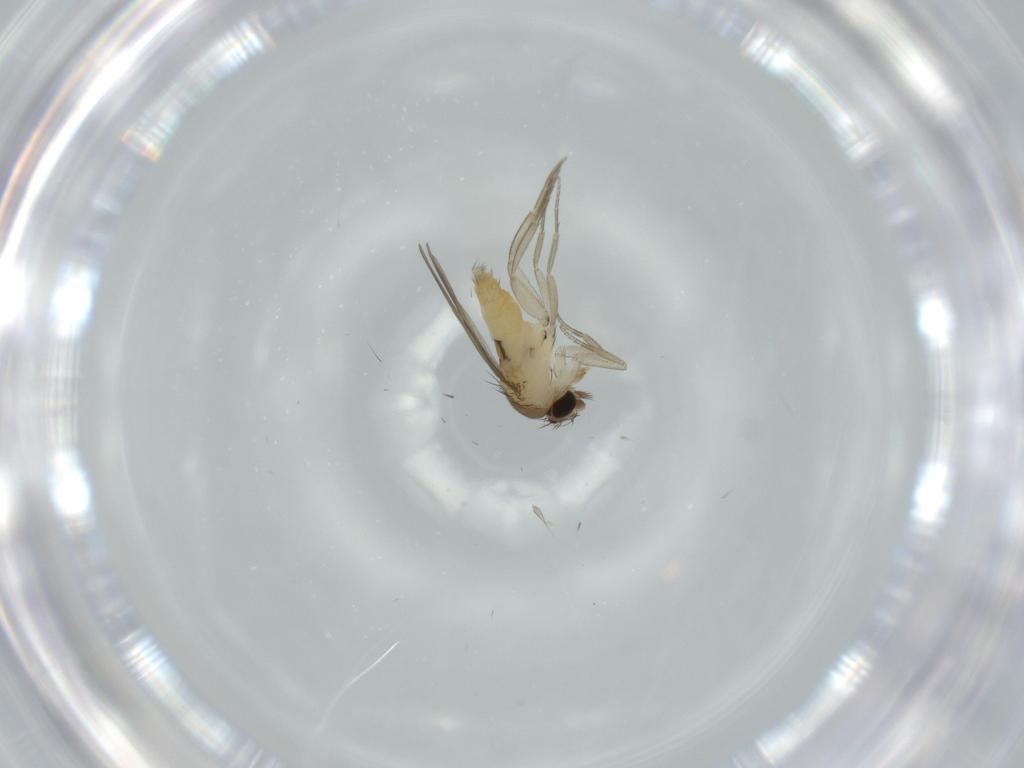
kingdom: Animalia
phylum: Arthropoda
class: Insecta
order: Diptera
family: Phoridae
